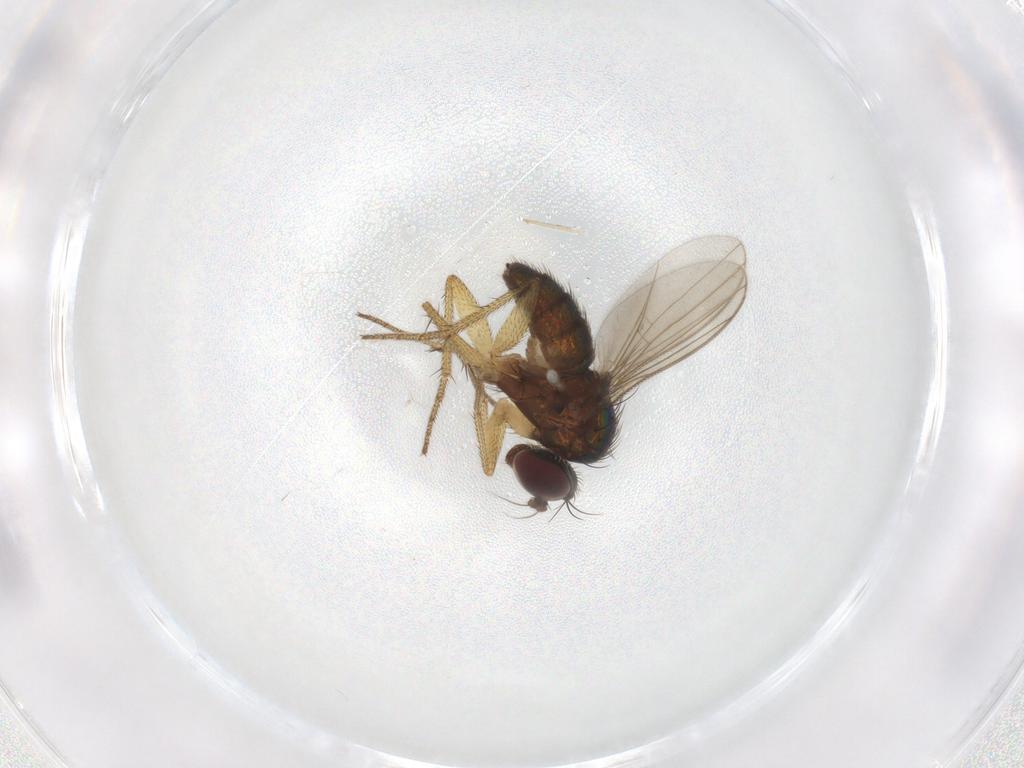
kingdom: Animalia
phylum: Arthropoda
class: Insecta
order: Diptera
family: Dolichopodidae
